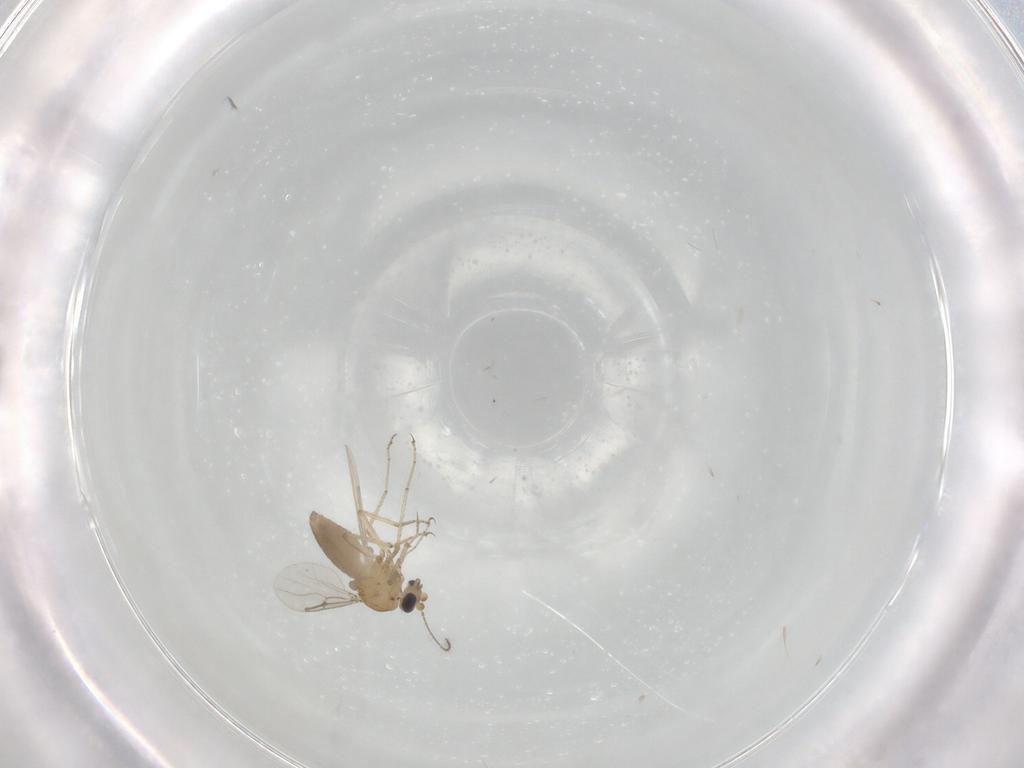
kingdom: Animalia
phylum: Arthropoda
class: Insecta
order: Diptera
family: Ceratopogonidae
